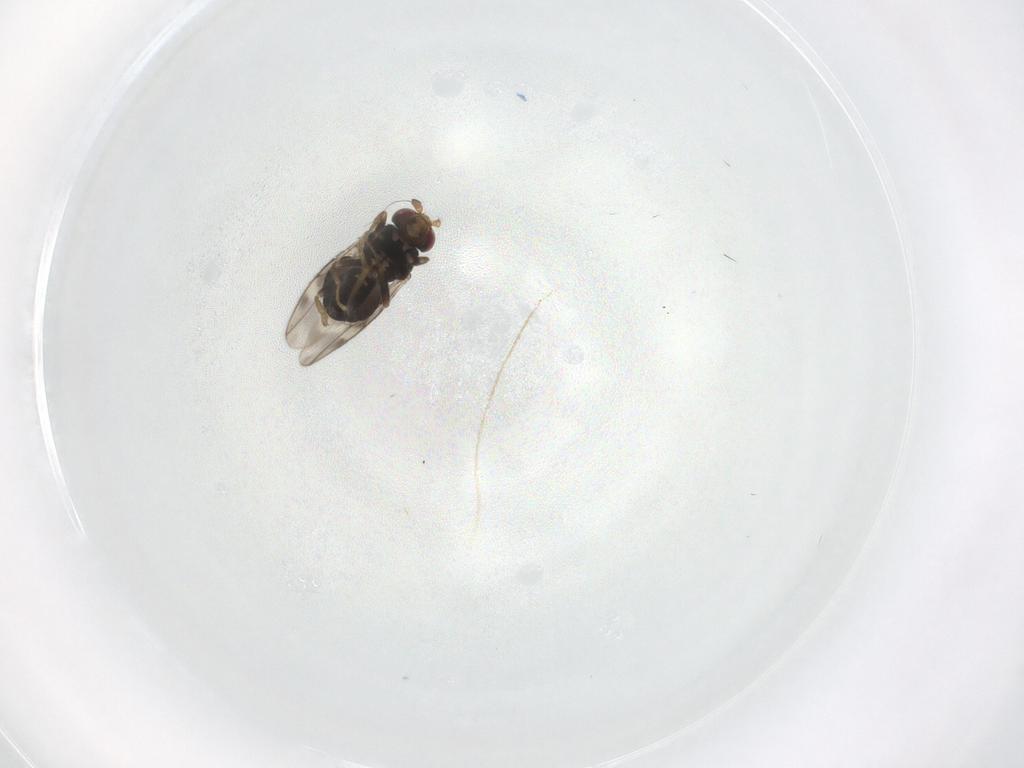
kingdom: Animalia
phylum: Arthropoda
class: Insecta
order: Diptera
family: Sphaeroceridae
